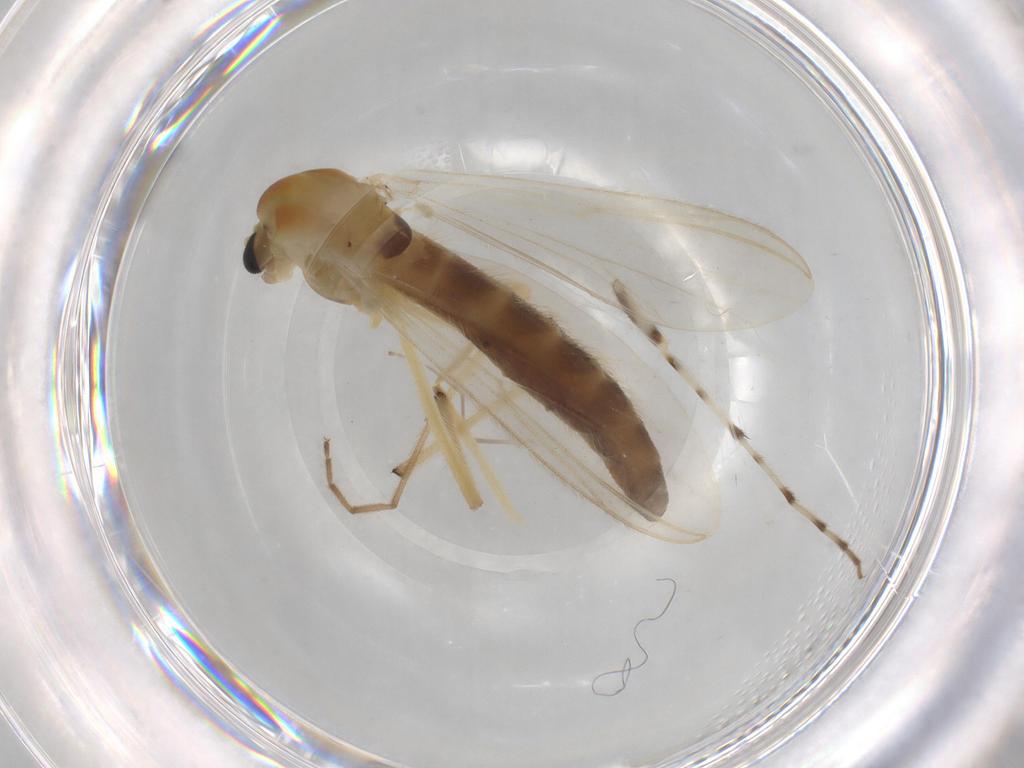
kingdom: Animalia
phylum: Arthropoda
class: Insecta
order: Diptera
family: Chironomidae
